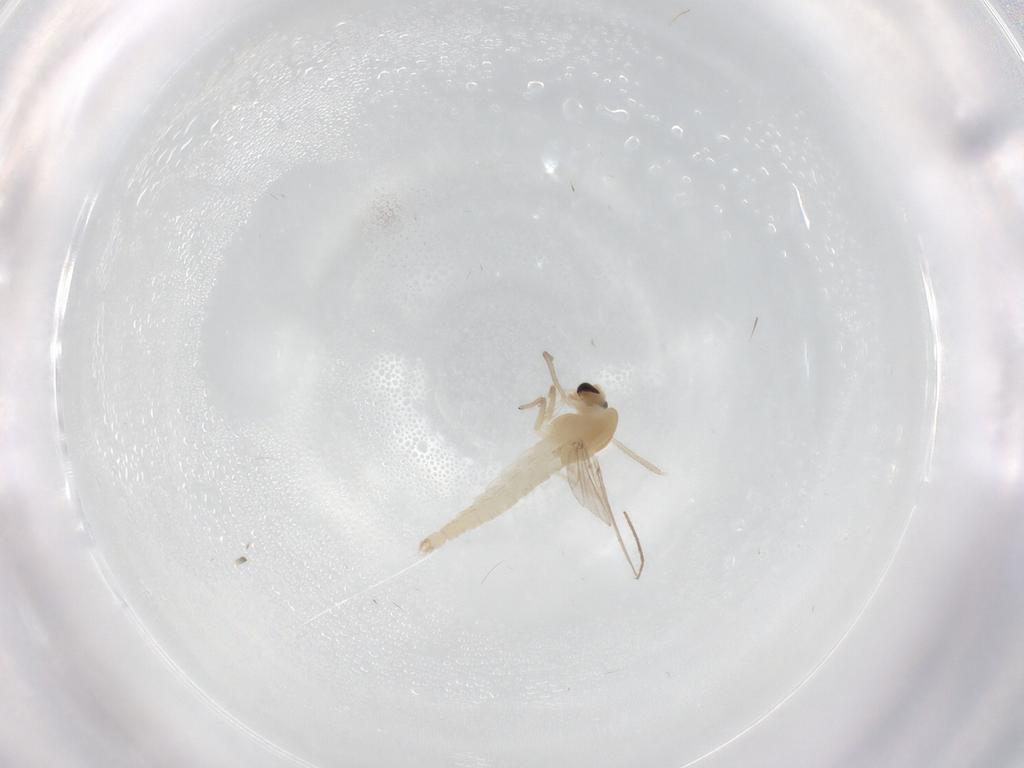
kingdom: Animalia
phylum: Arthropoda
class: Insecta
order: Diptera
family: Chironomidae
